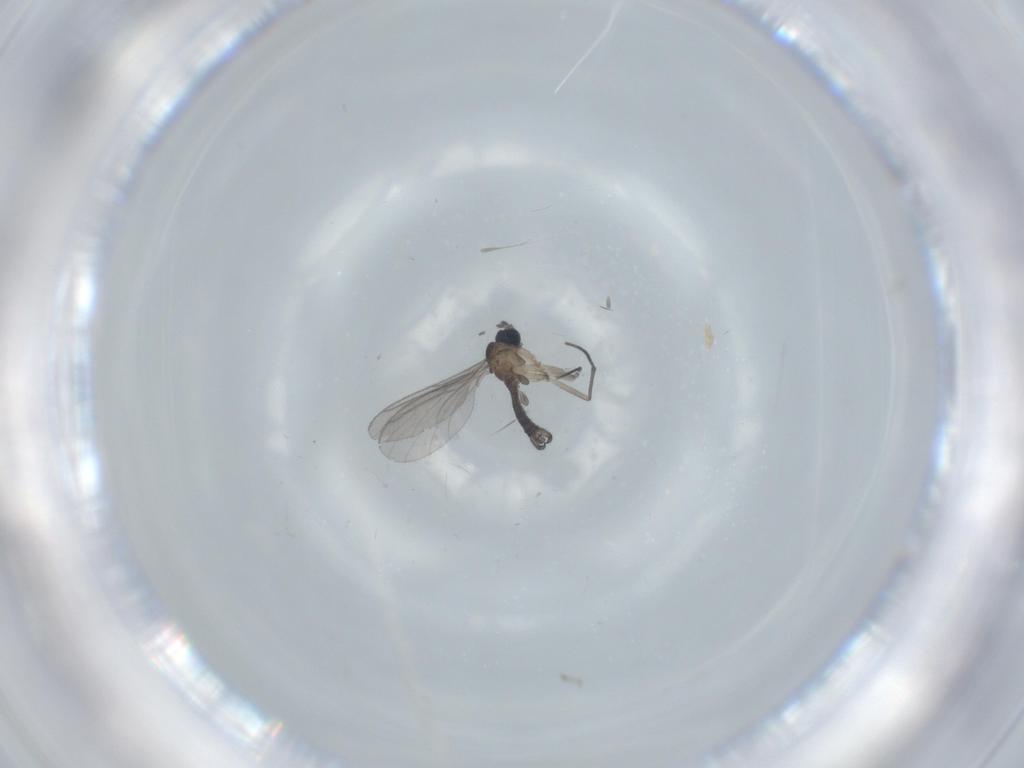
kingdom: Animalia
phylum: Arthropoda
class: Insecta
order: Diptera
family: Sciaridae
